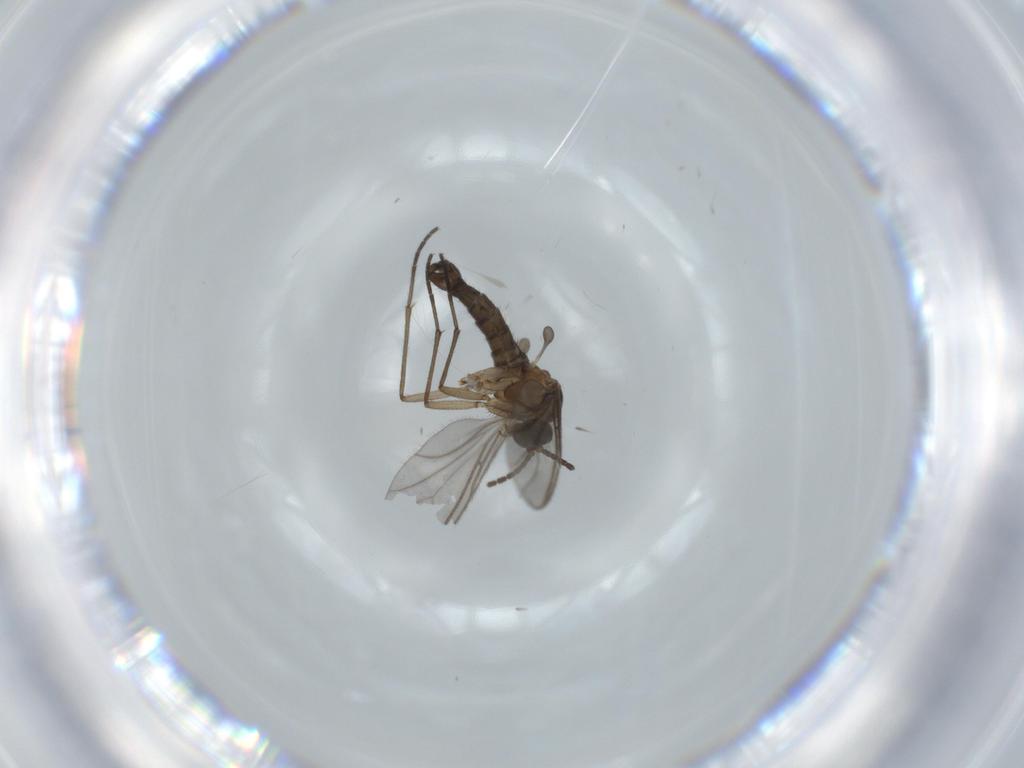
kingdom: Animalia
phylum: Arthropoda
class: Insecta
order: Diptera
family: Sciaridae
